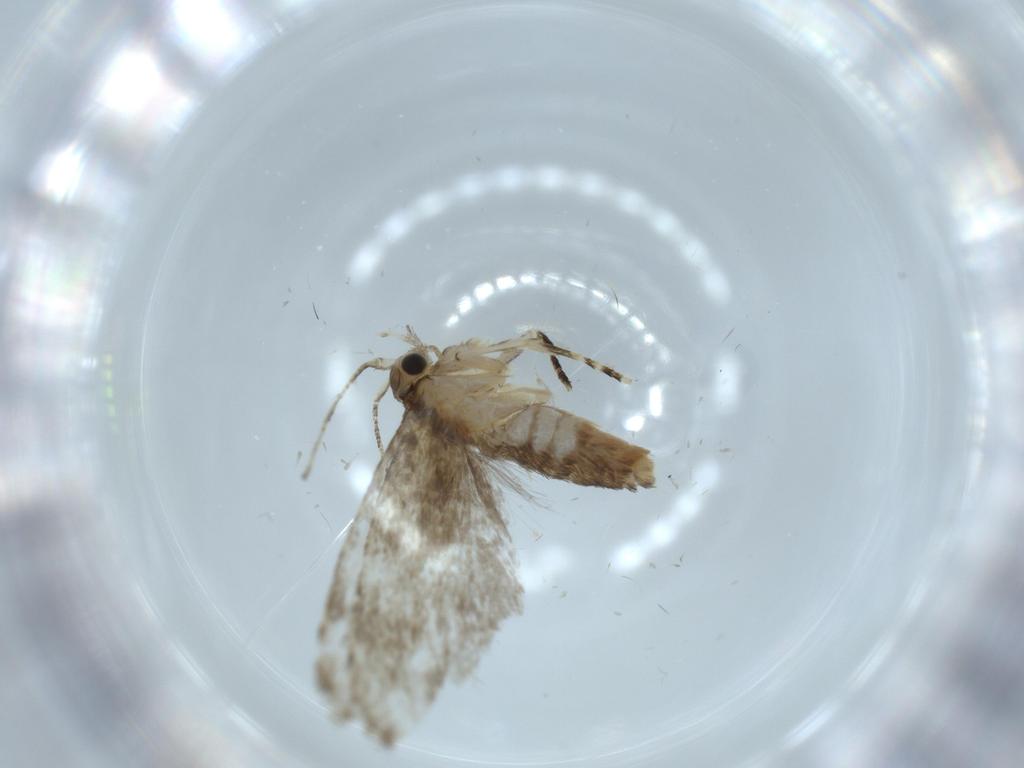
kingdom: Animalia
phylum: Arthropoda
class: Insecta
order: Lepidoptera
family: Tineidae
